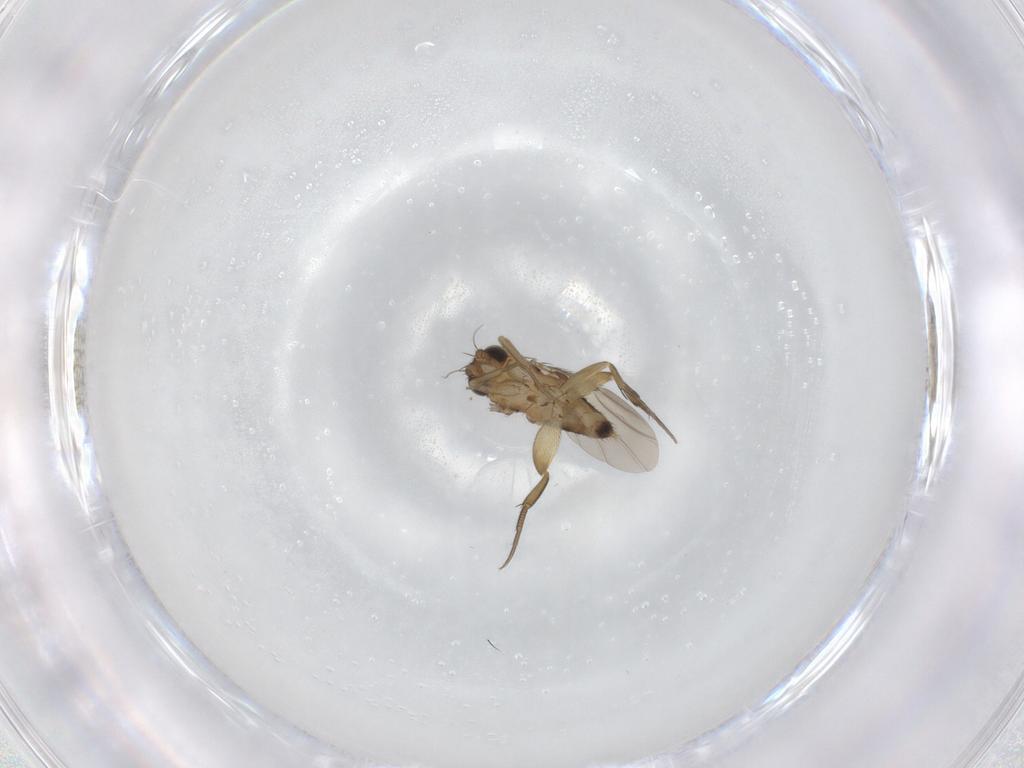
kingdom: Animalia
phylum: Arthropoda
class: Insecta
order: Diptera
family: Phoridae
